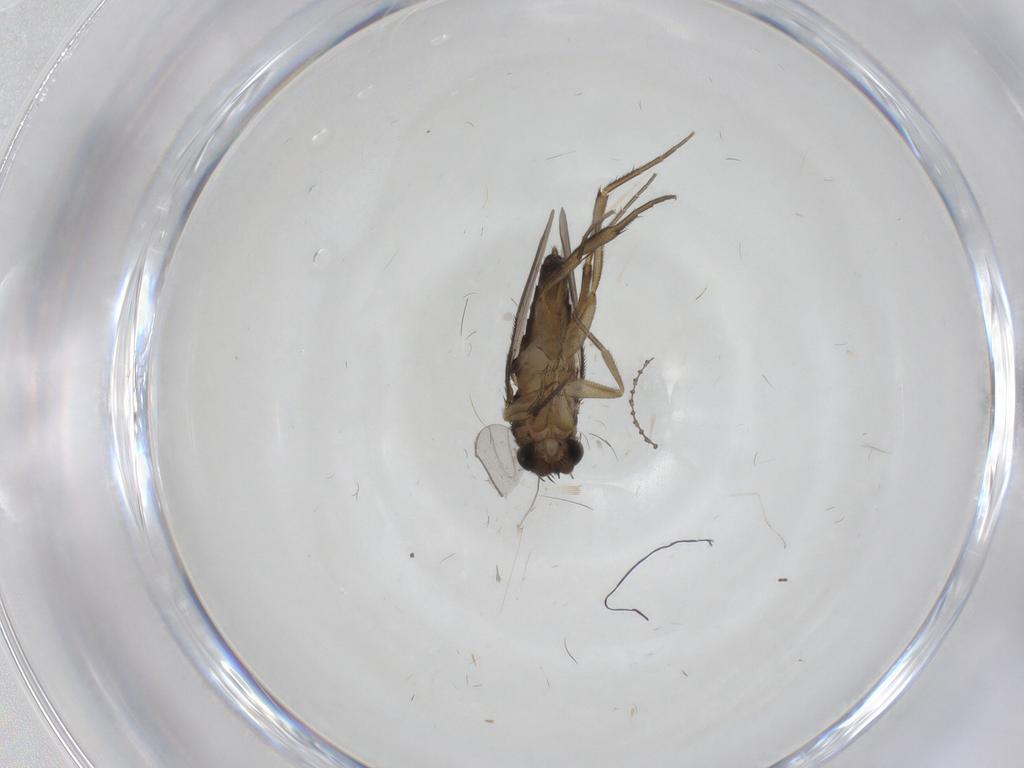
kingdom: Animalia
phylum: Arthropoda
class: Insecta
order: Diptera
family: Phoridae
